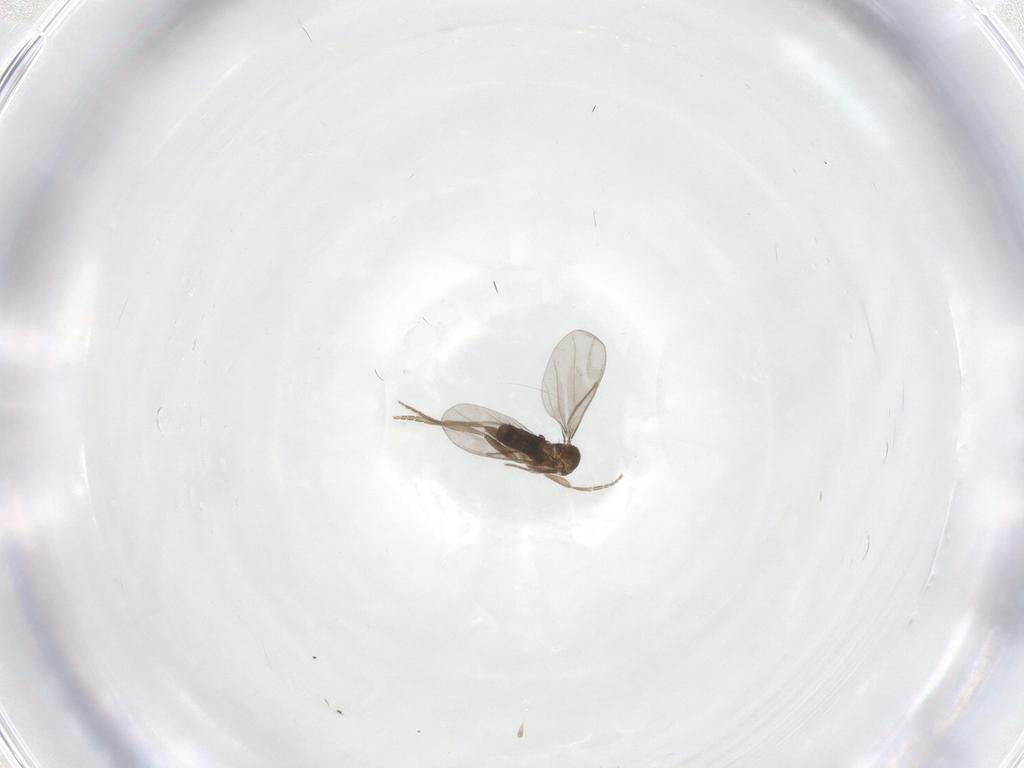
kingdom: Animalia
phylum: Arthropoda
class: Insecta
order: Diptera
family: Cecidomyiidae
